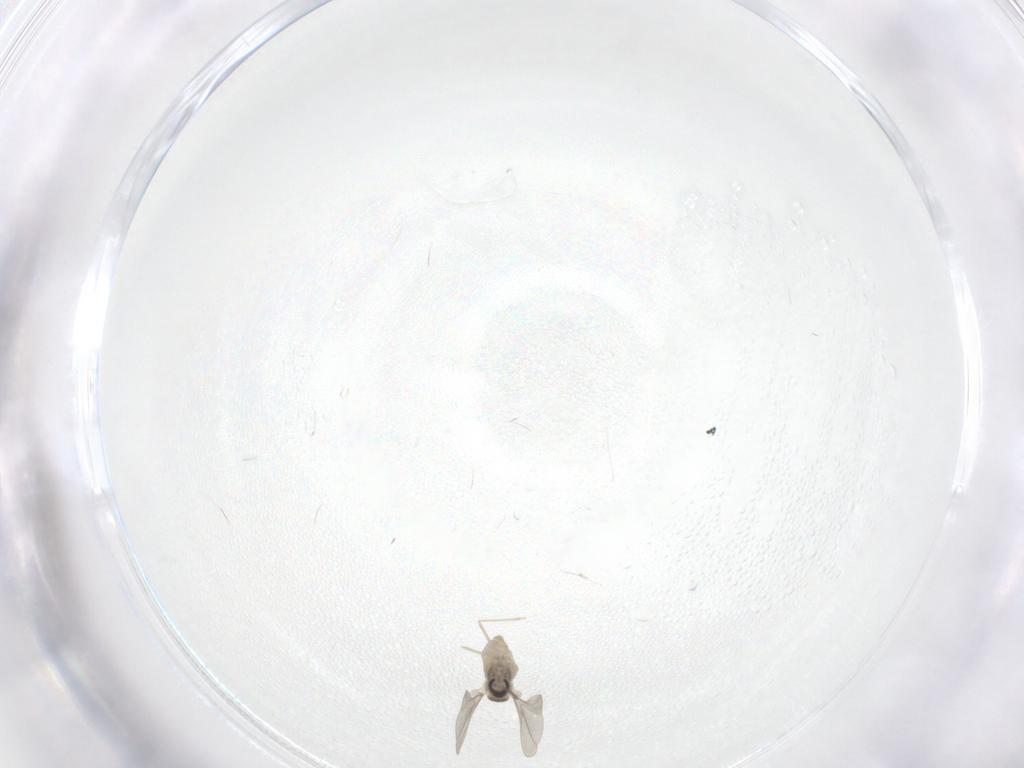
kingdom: Animalia
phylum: Arthropoda
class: Insecta
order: Diptera
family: Cecidomyiidae
